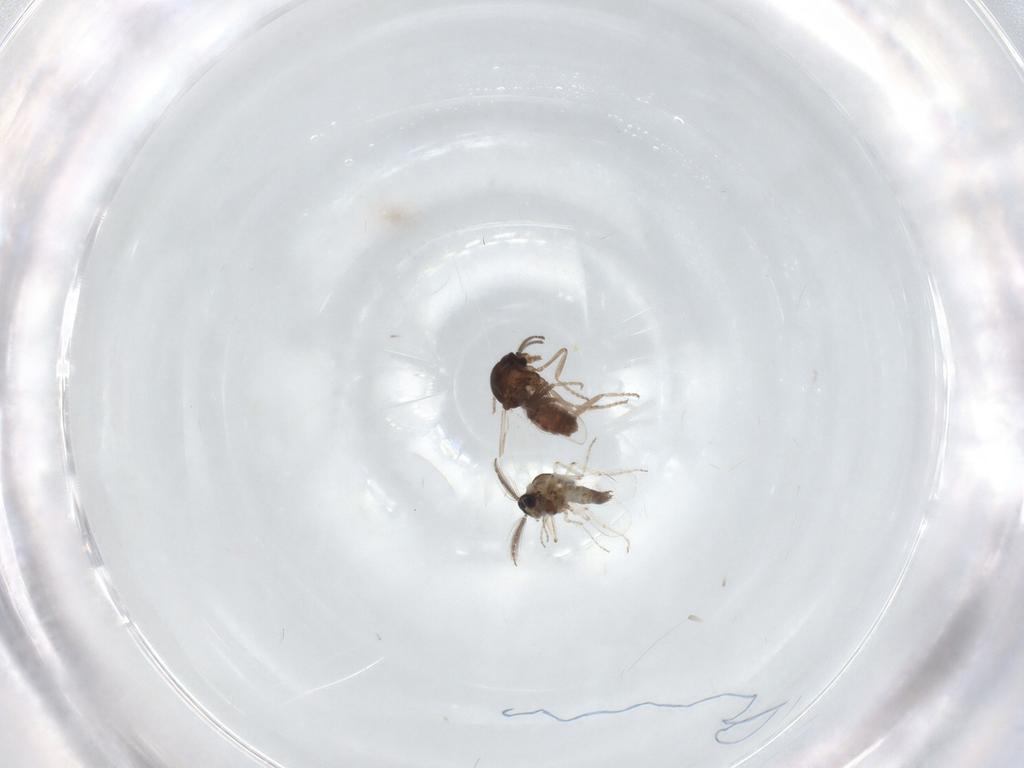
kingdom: Animalia
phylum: Arthropoda
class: Insecta
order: Diptera
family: Ceratopogonidae
